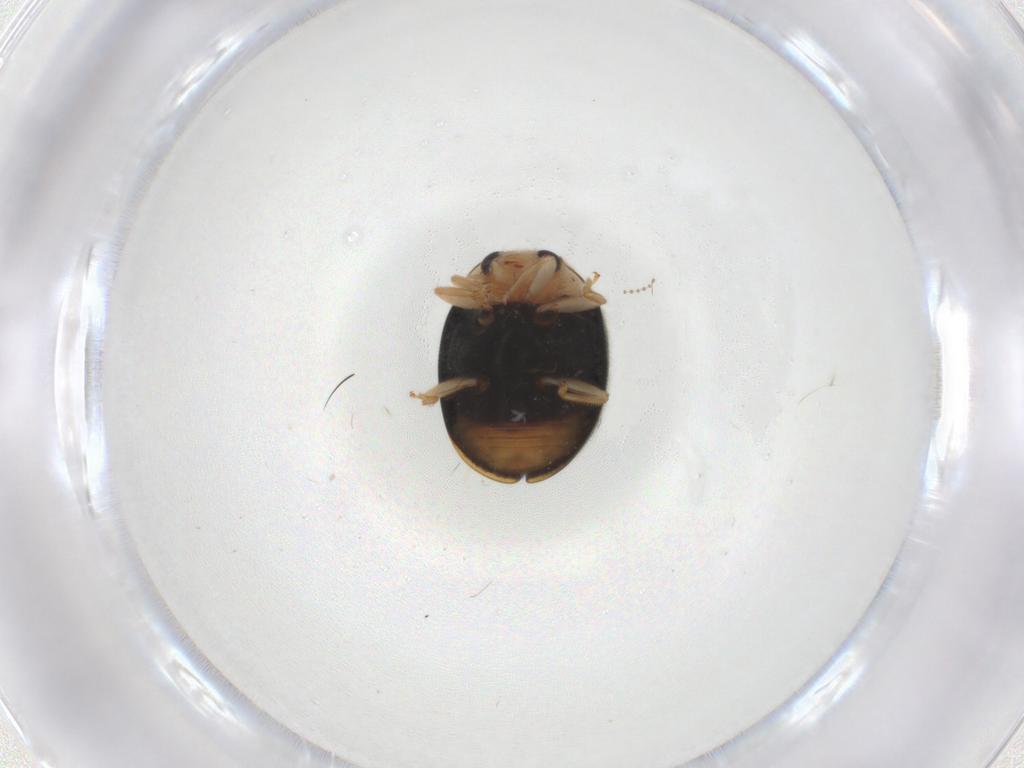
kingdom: Animalia
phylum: Arthropoda
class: Insecta
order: Coleoptera
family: Coccinellidae
